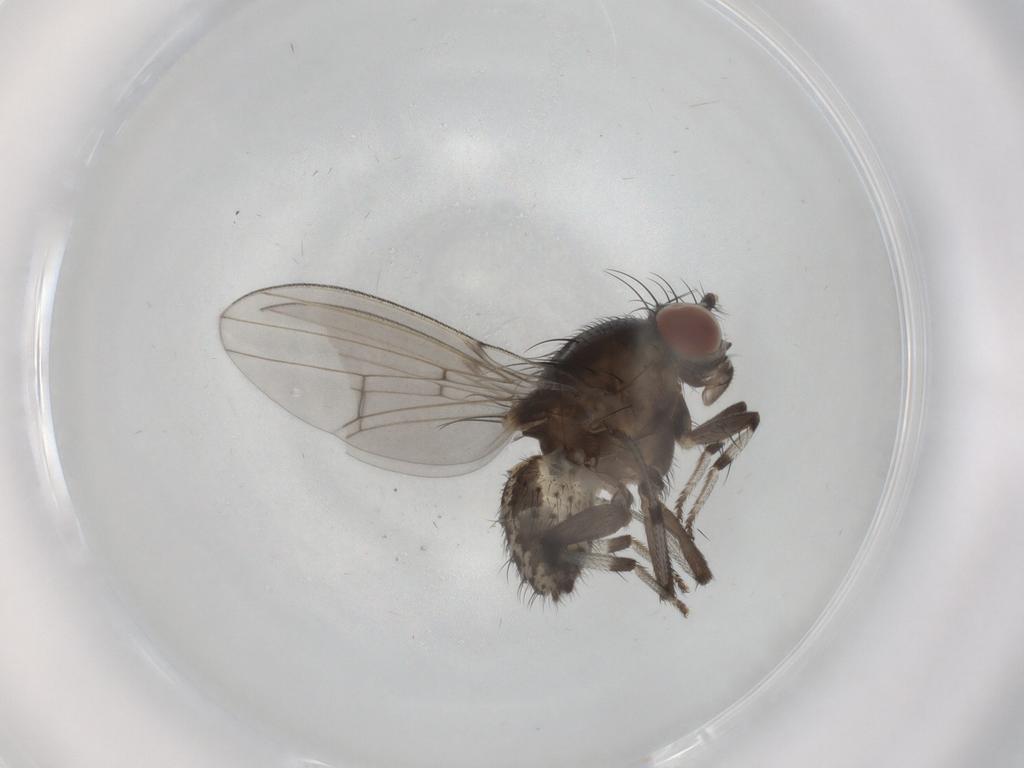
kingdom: Animalia
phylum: Arthropoda
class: Insecta
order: Diptera
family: Ceratopogonidae
